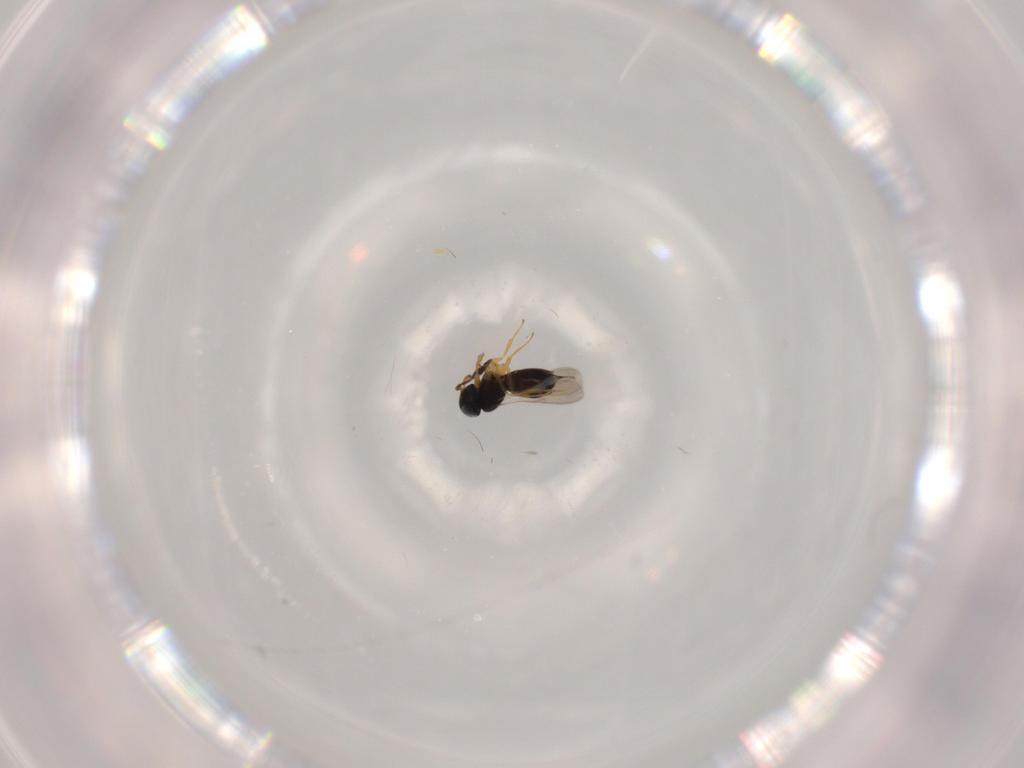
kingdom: Animalia
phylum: Arthropoda
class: Insecta
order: Hymenoptera
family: Scelionidae
